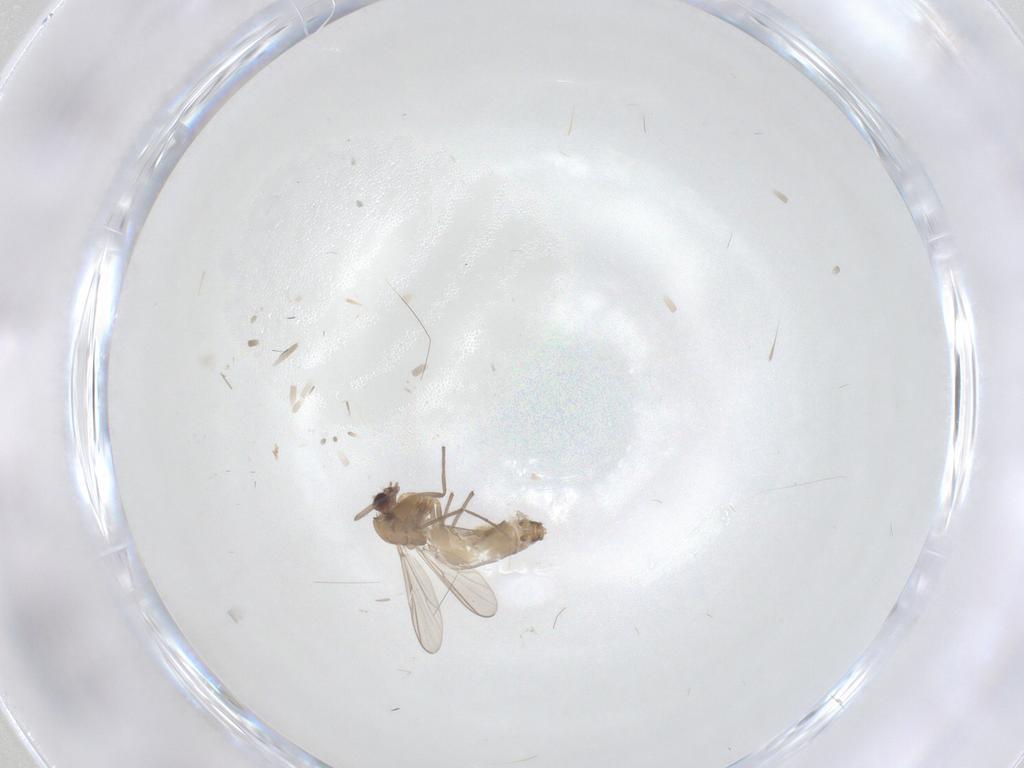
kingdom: Animalia
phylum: Arthropoda
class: Insecta
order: Diptera
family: Chironomidae
